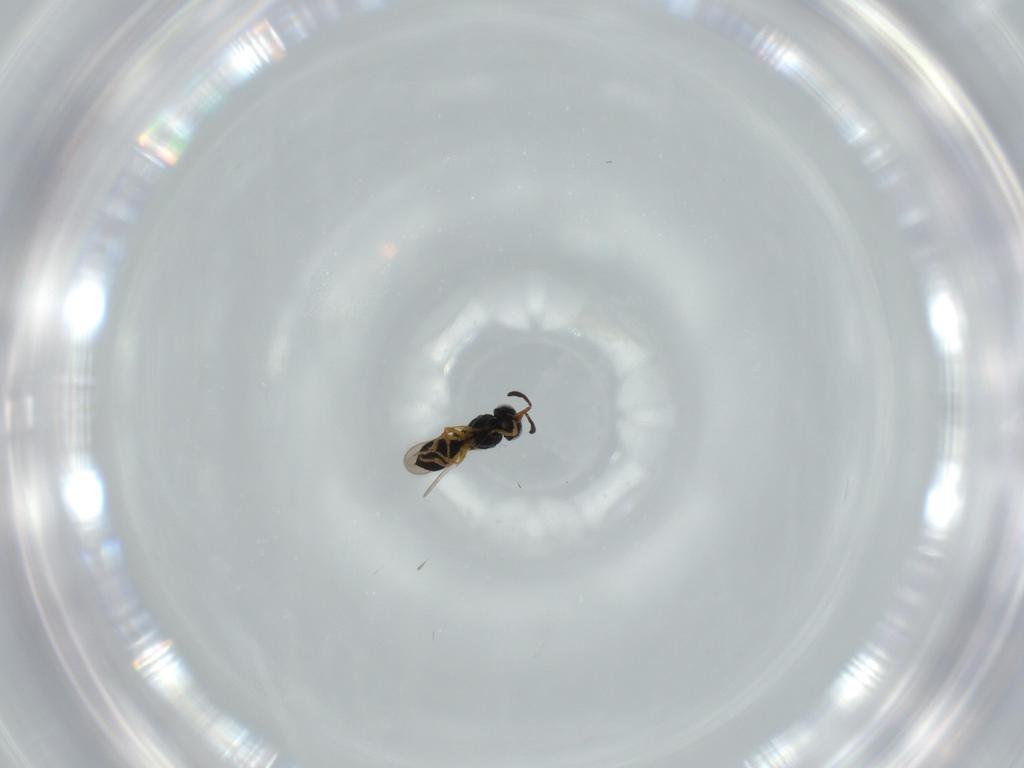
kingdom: Animalia
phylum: Arthropoda
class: Insecta
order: Hymenoptera
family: Scelionidae
